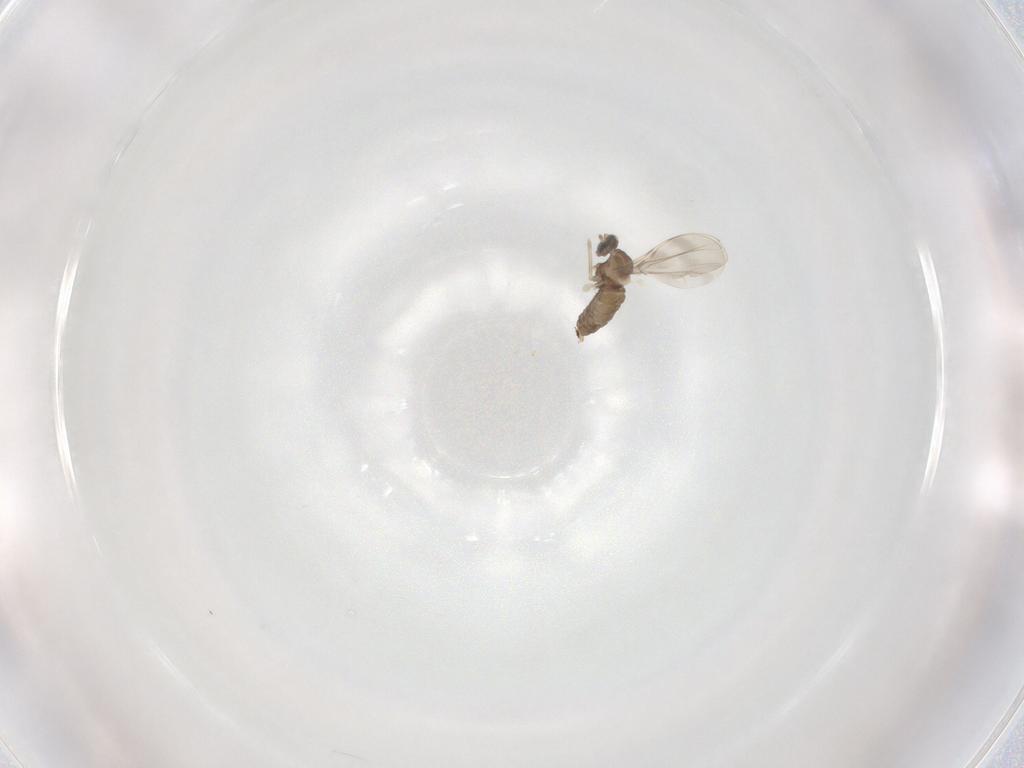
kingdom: Animalia
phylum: Arthropoda
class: Insecta
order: Diptera
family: Cecidomyiidae
